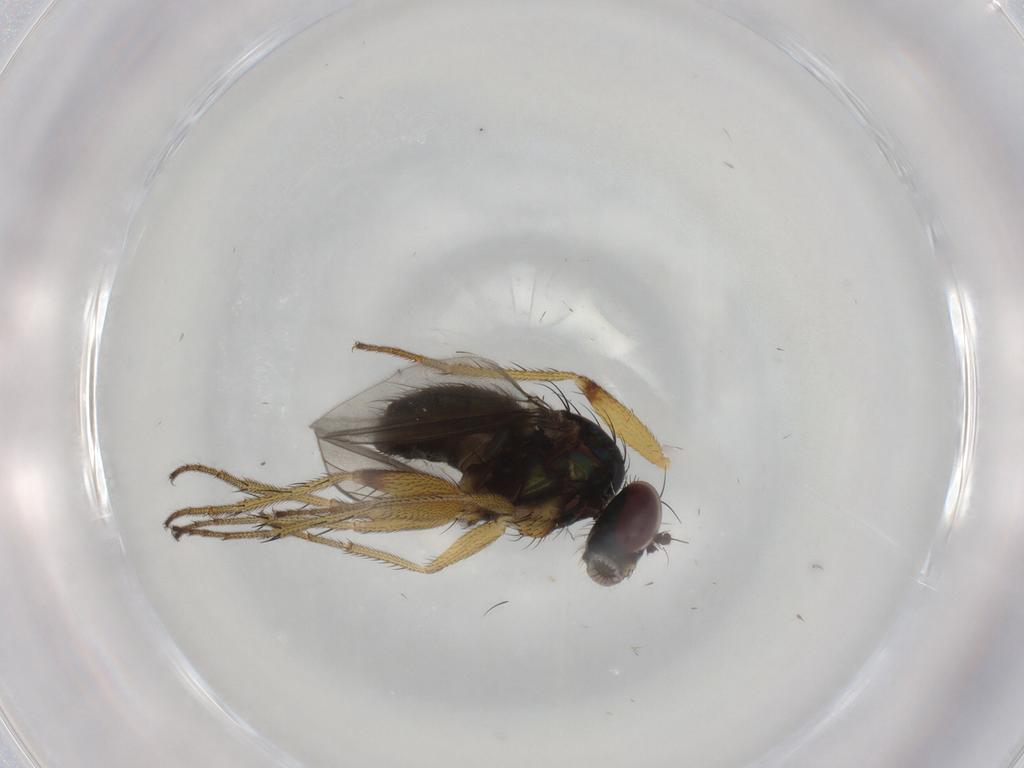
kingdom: Animalia
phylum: Arthropoda
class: Insecta
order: Diptera
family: Dolichopodidae
